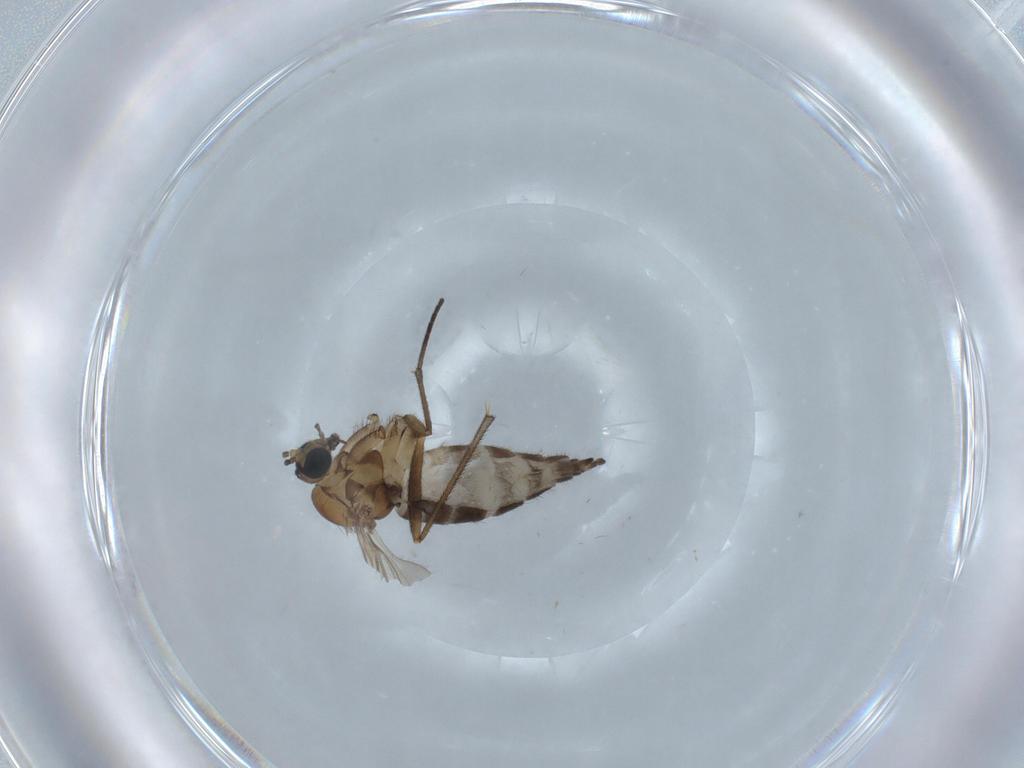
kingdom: Animalia
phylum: Arthropoda
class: Insecta
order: Diptera
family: Sciaridae
